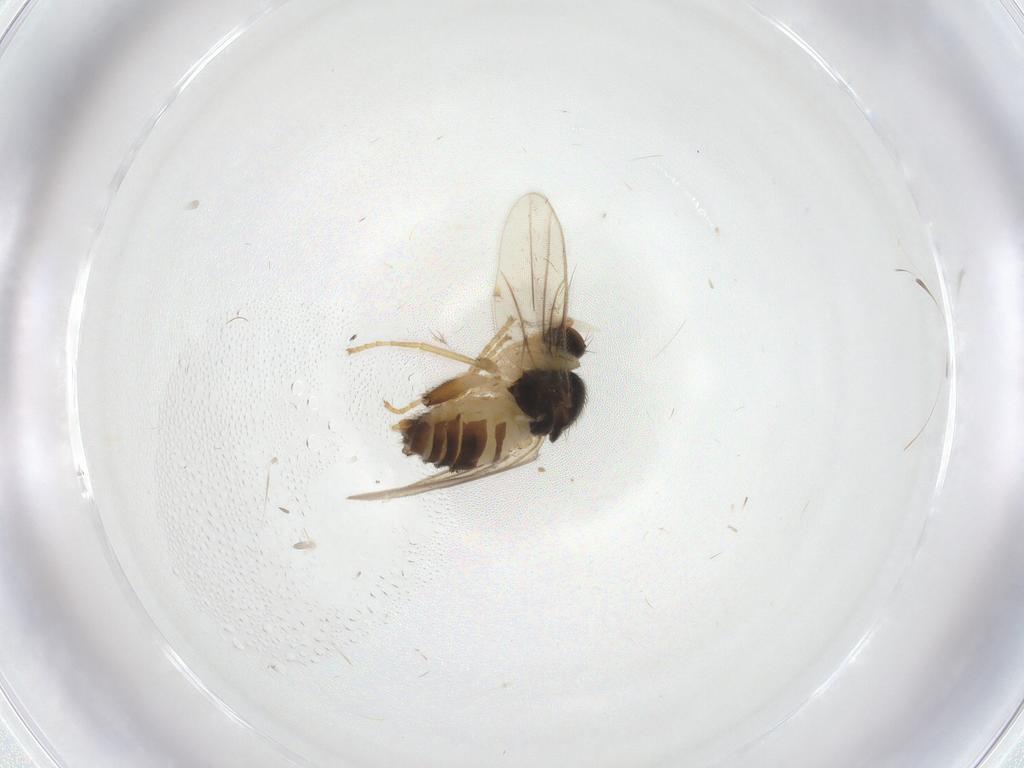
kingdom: Animalia
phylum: Arthropoda
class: Insecta
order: Diptera
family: Hybotidae
